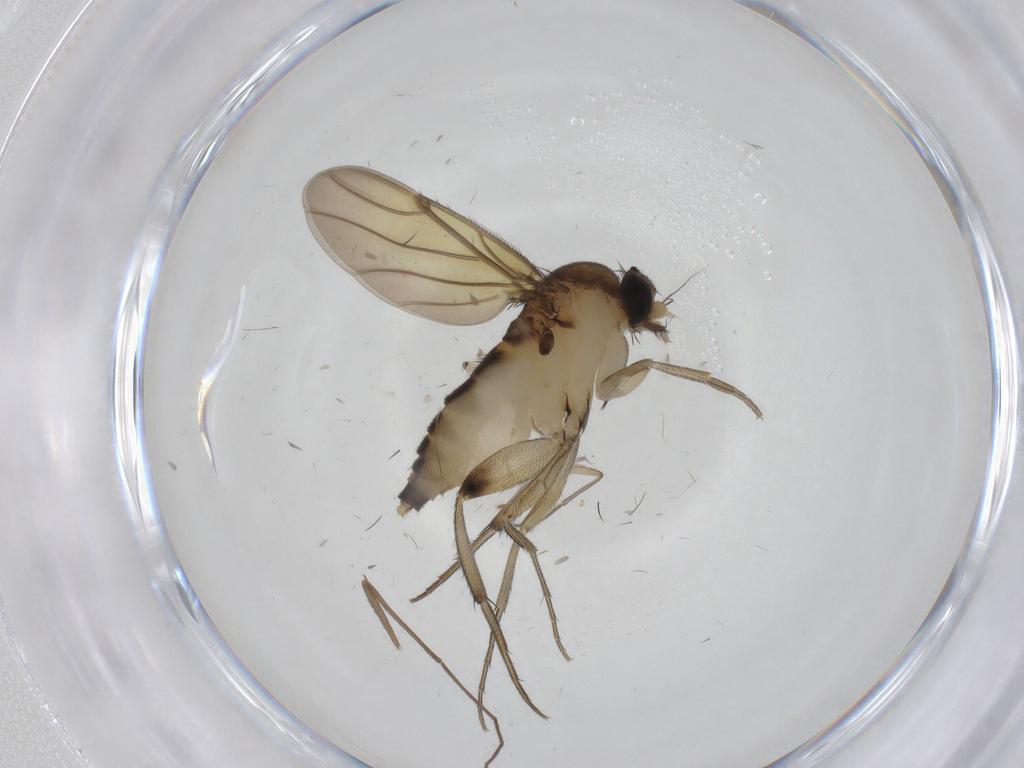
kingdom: Animalia
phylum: Arthropoda
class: Insecta
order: Diptera
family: Phoridae
